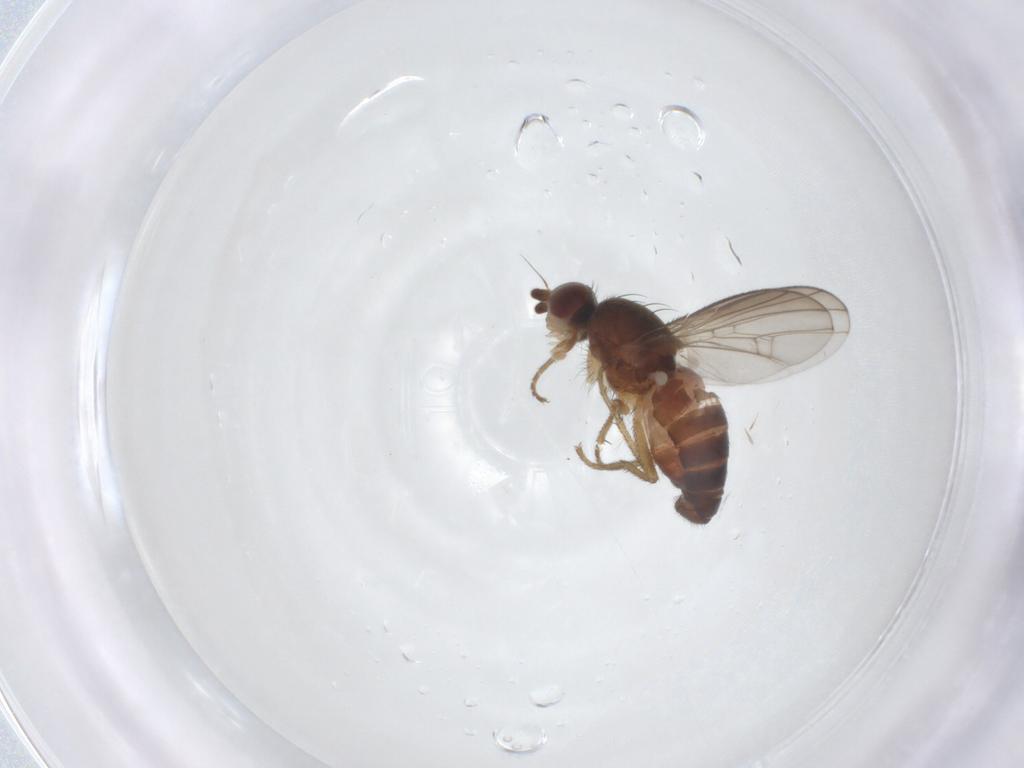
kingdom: Animalia
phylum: Arthropoda
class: Insecta
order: Diptera
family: Heleomyzidae
